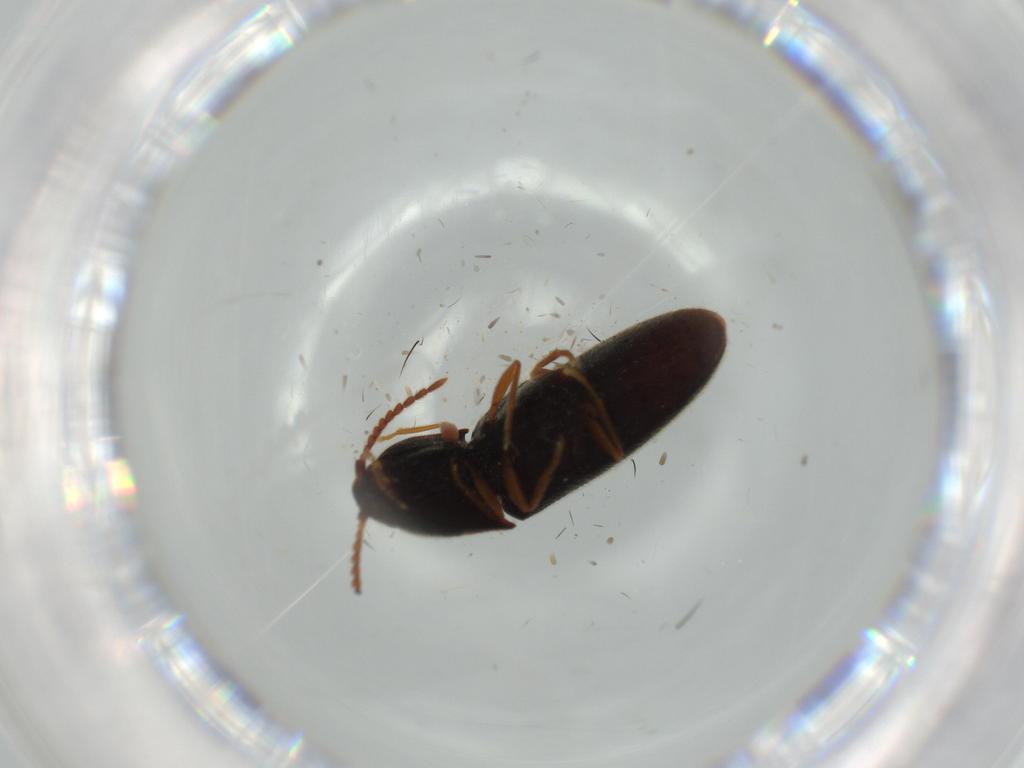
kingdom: Animalia
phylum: Arthropoda
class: Insecta
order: Coleoptera
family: Elateridae
